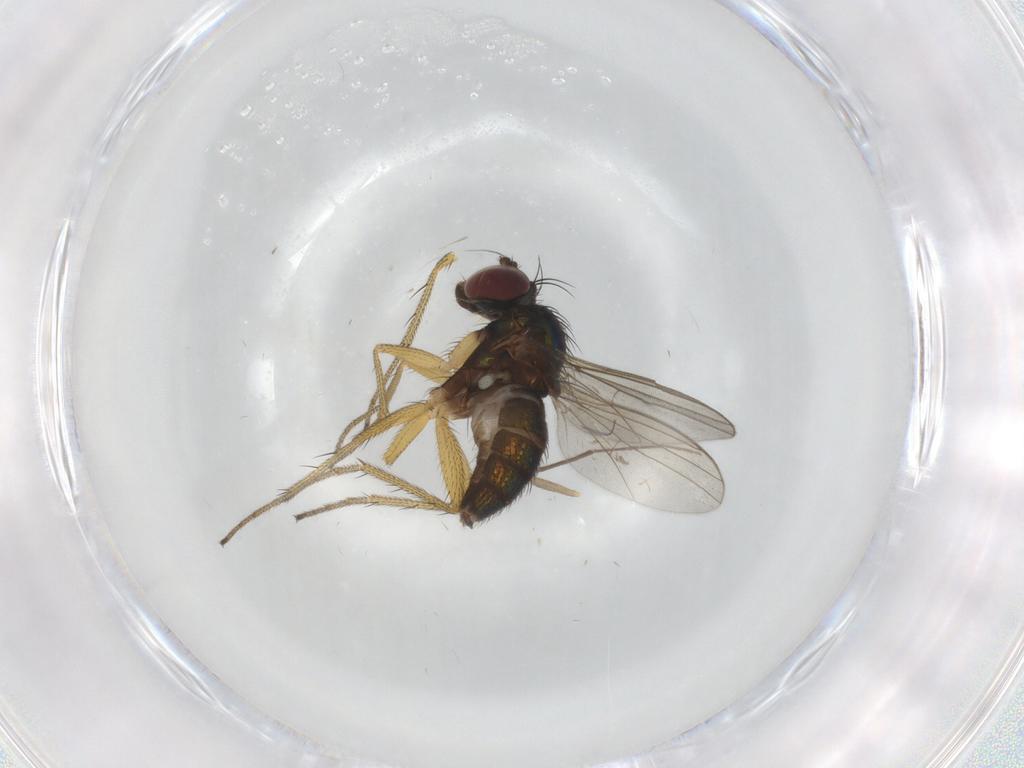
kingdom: Animalia
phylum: Arthropoda
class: Insecta
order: Diptera
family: Chironomidae
